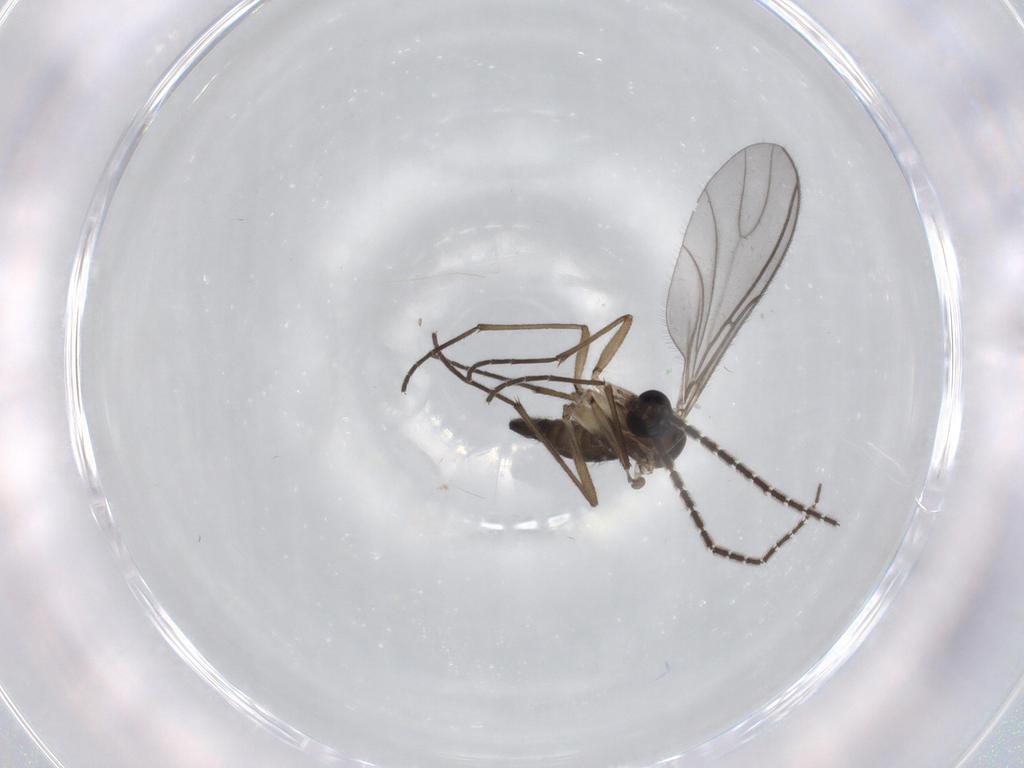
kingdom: Animalia
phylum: Arthropoda
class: Insecta
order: Diptera
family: Sciaridae
